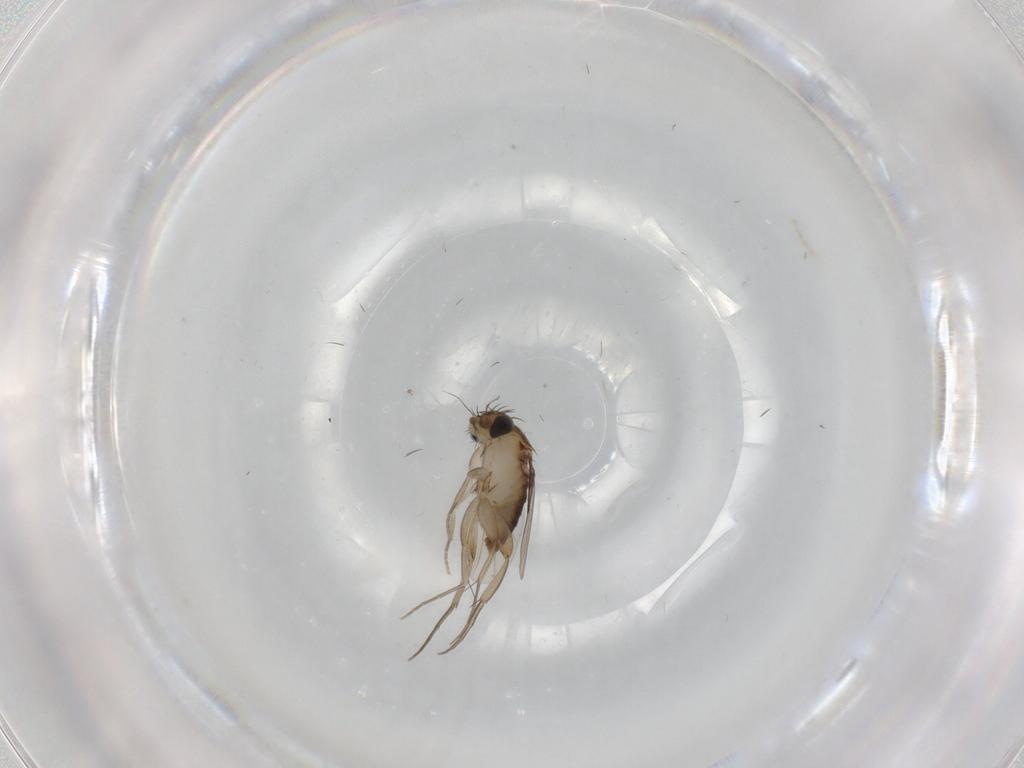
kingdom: Animalia
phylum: Arthropoda
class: Insecta
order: Diptera
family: Phoridae
